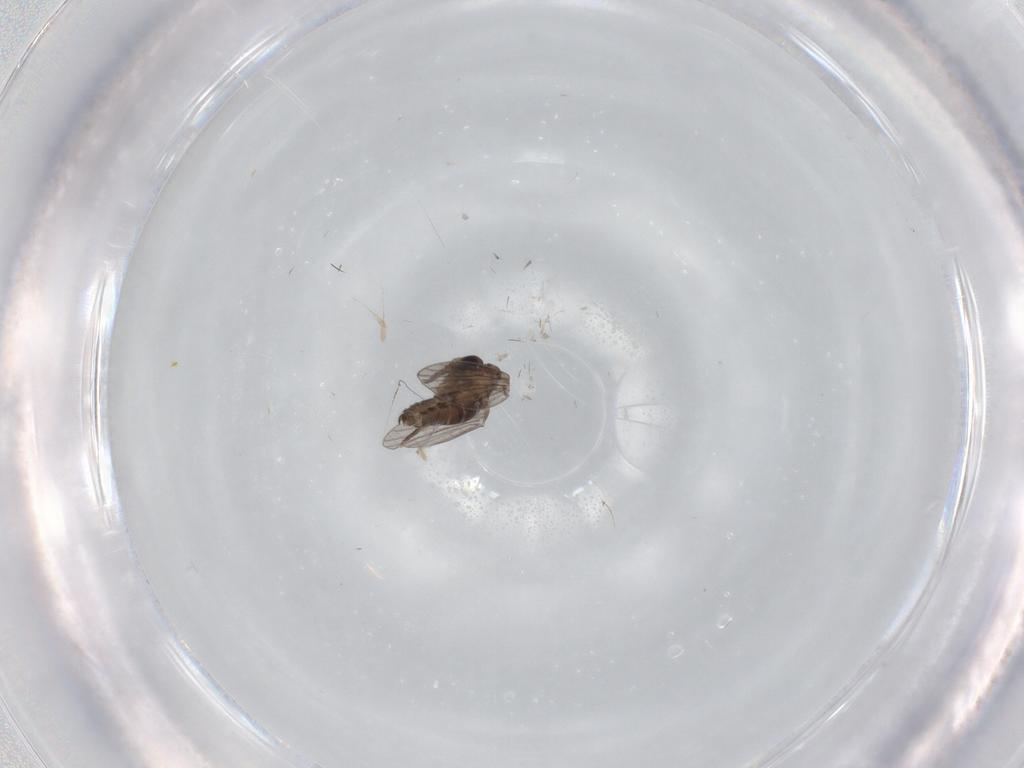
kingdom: Animalia
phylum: Arthropoda
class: Insecta
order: Diptera
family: Cecidomyiidae
